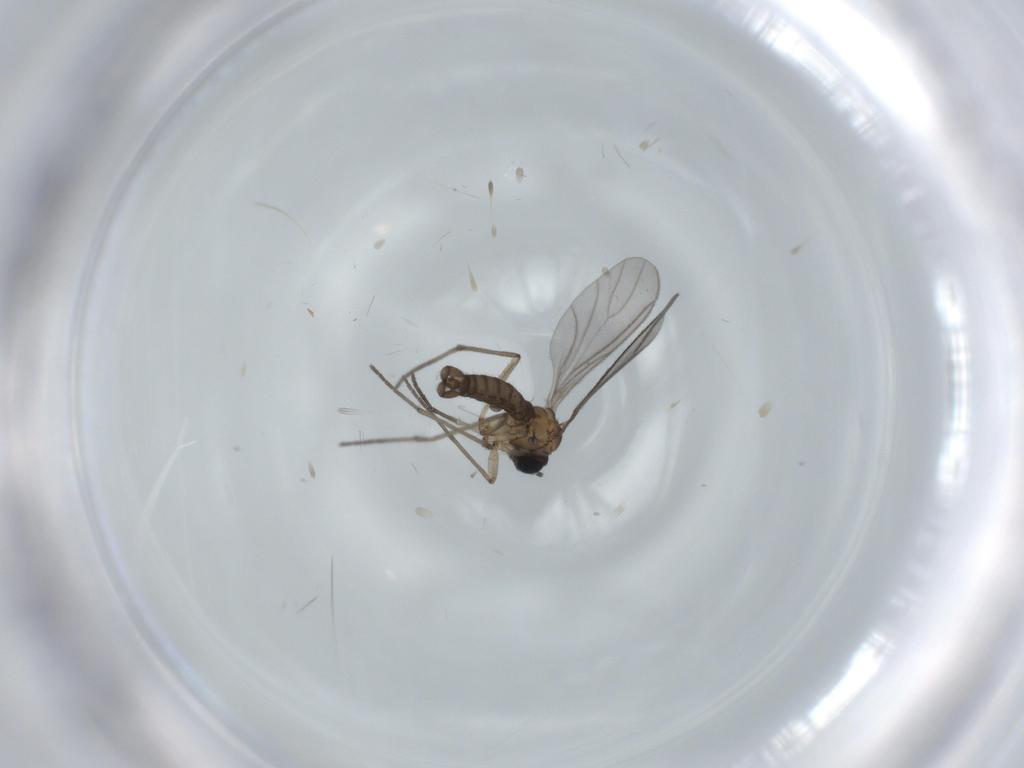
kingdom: Animalia
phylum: Arthropoda
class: Insecta
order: Diptera
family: Sciaridae
